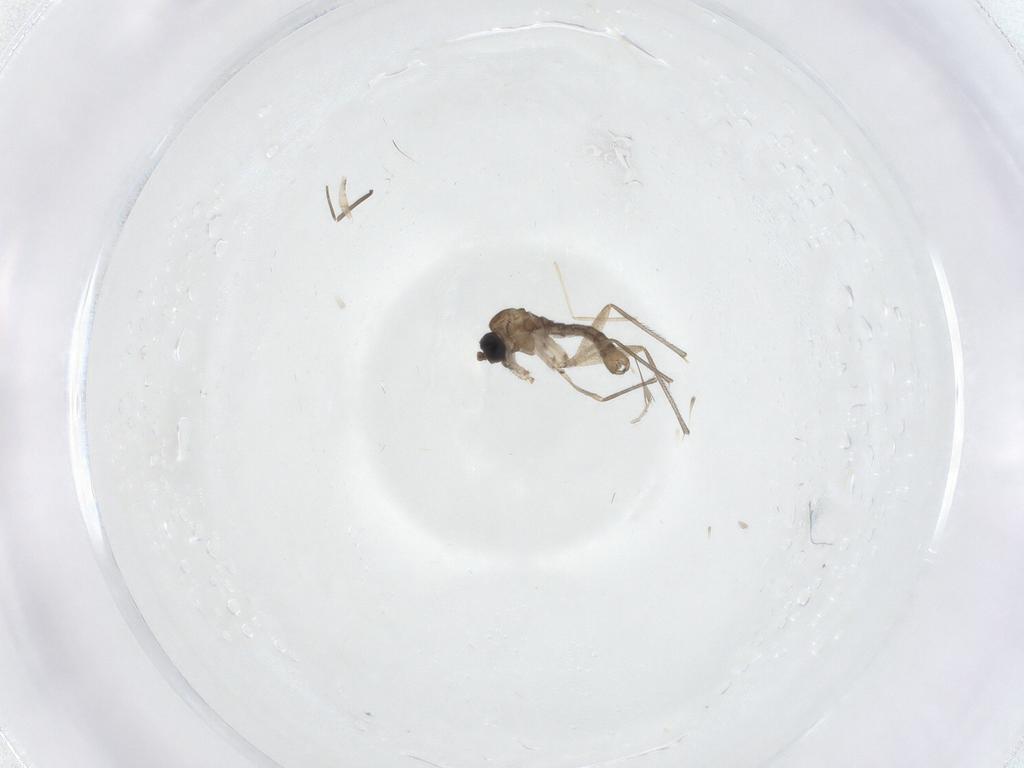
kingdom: Animalia
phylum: Arthropoda
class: Insecta
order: Diptera
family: Sciaridae
